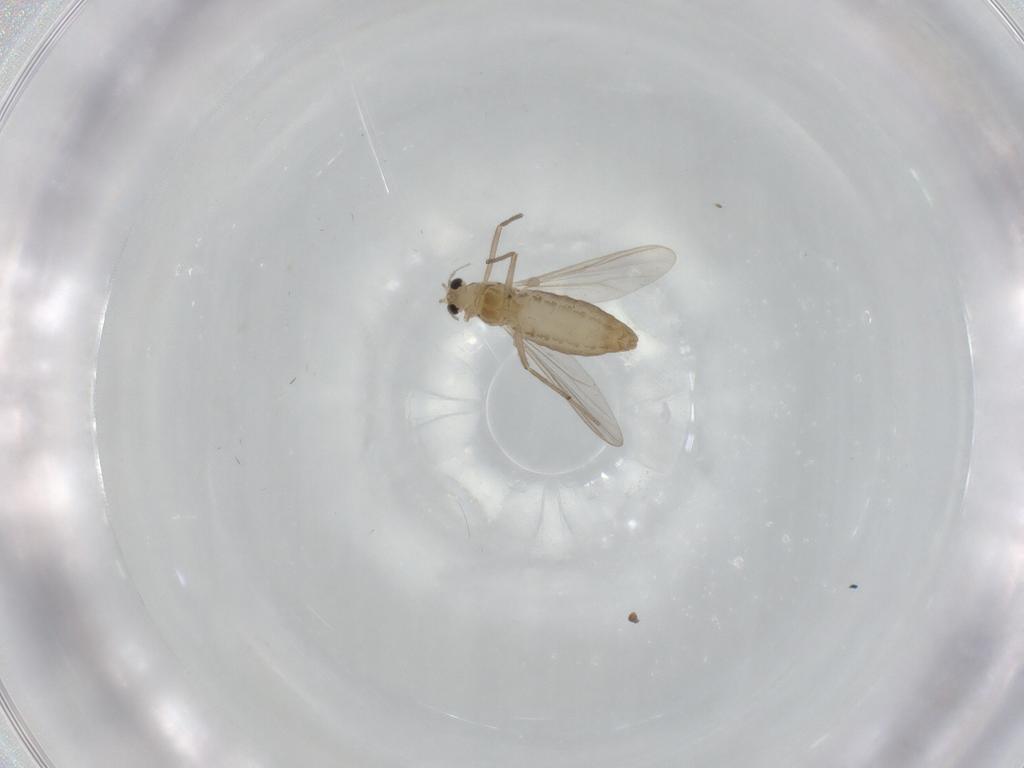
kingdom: Animalia
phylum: Arthropoda
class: Insecta
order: Diptera
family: Chironomidae
